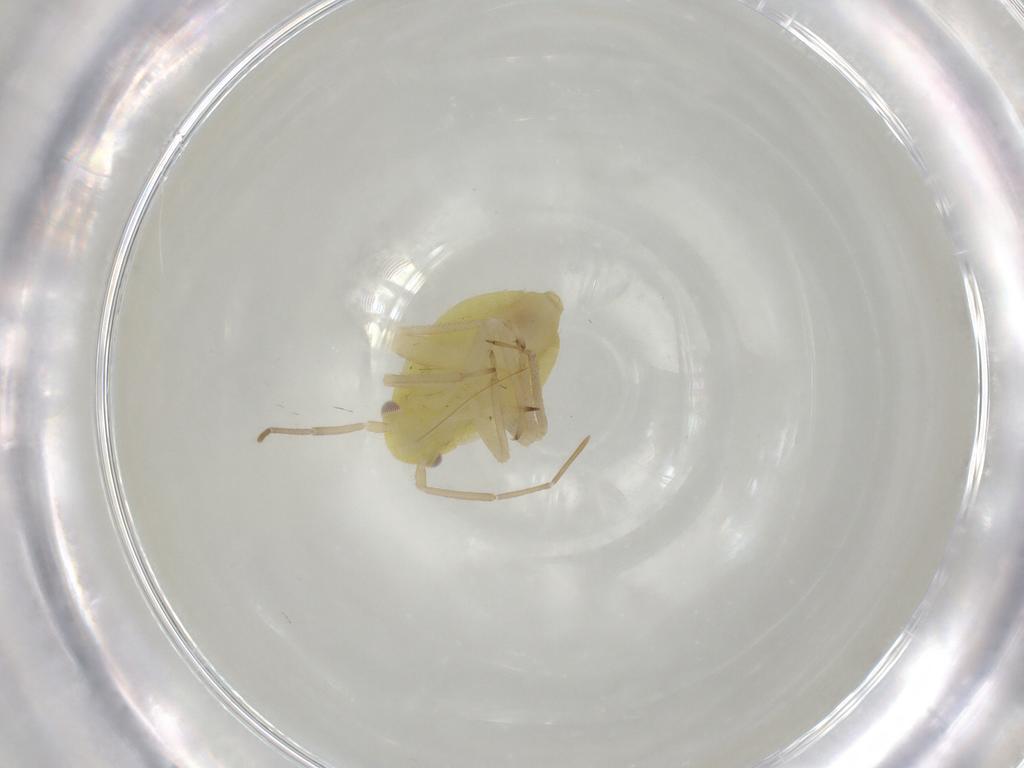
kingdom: Animalia
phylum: Arthropoda
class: Insecta
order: Hemiptera
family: Miridae
